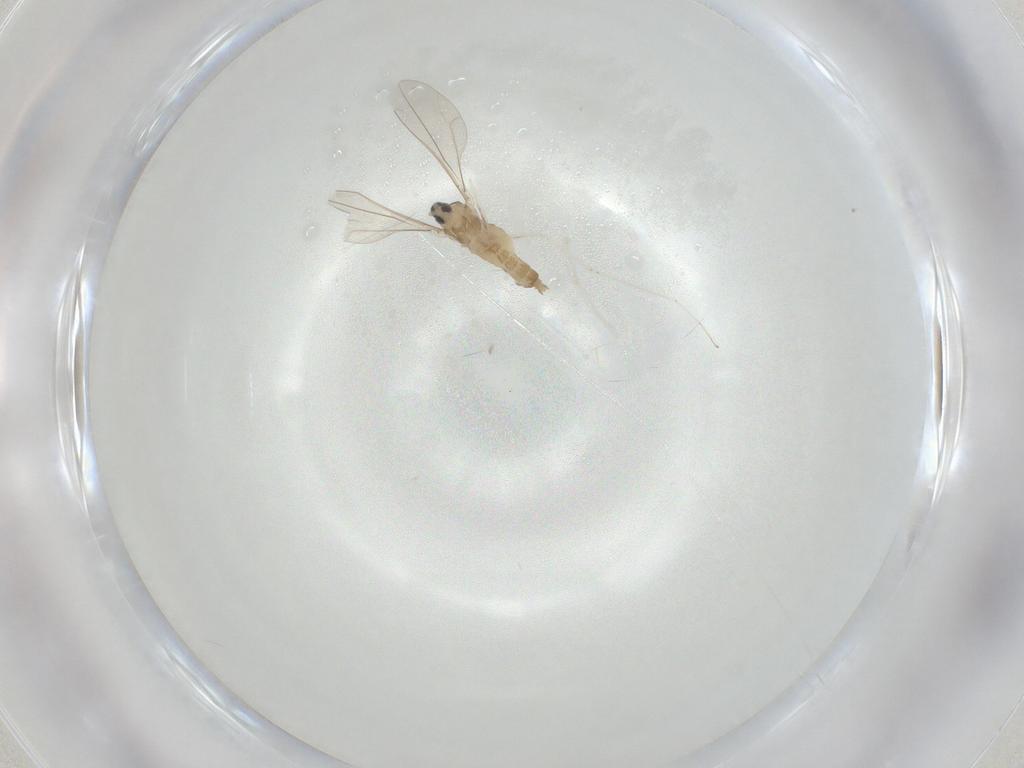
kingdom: Animalia
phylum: Arthropoda
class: Insecta
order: Diptera
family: Cecidomyiidae
